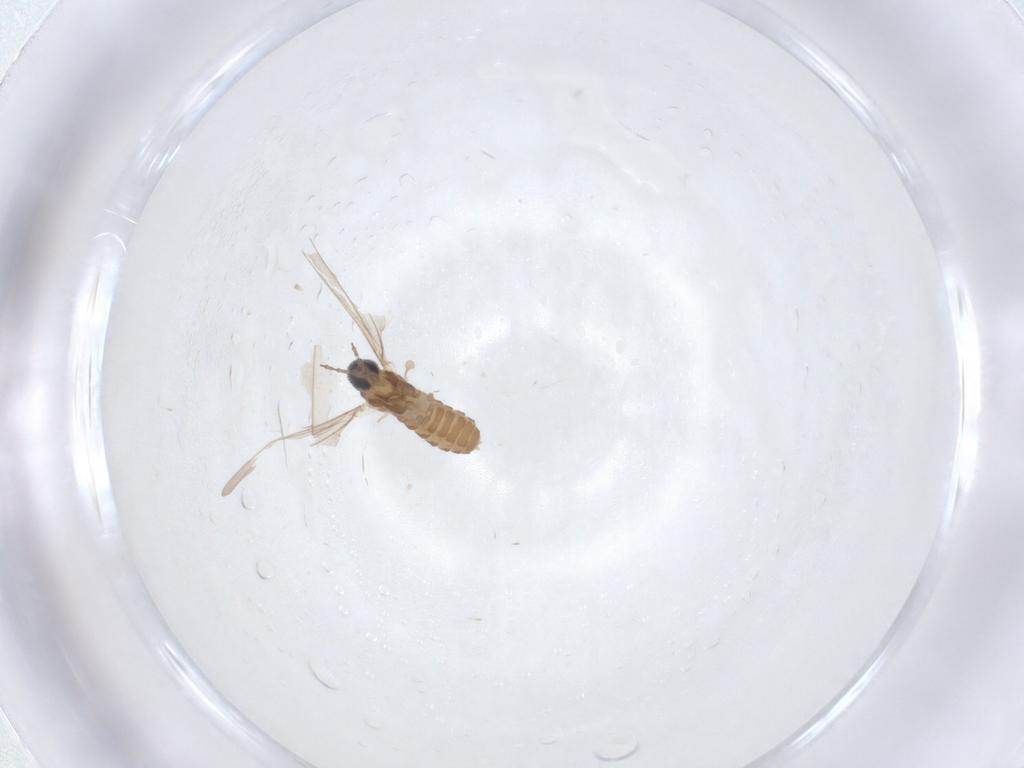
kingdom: Animalia
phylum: Arthropoda
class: Insecta
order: Diptera
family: Cecidomyiidae
